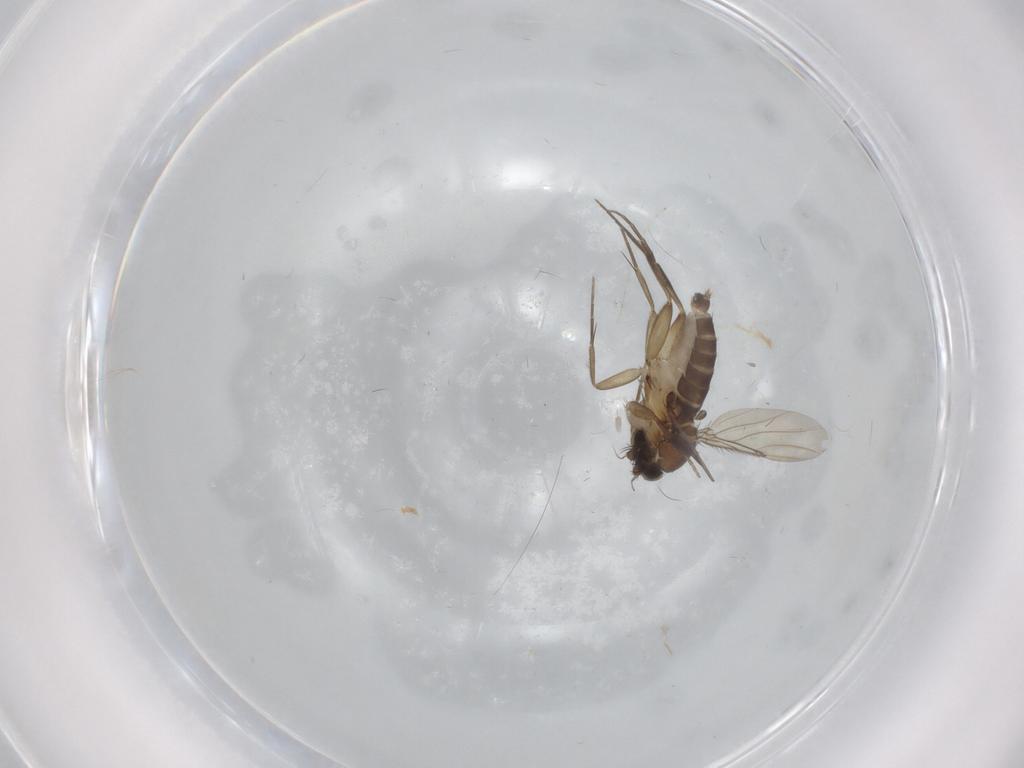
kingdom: Animalia
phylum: Arthropoda
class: Insecta
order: Diptera
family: Phoridae
